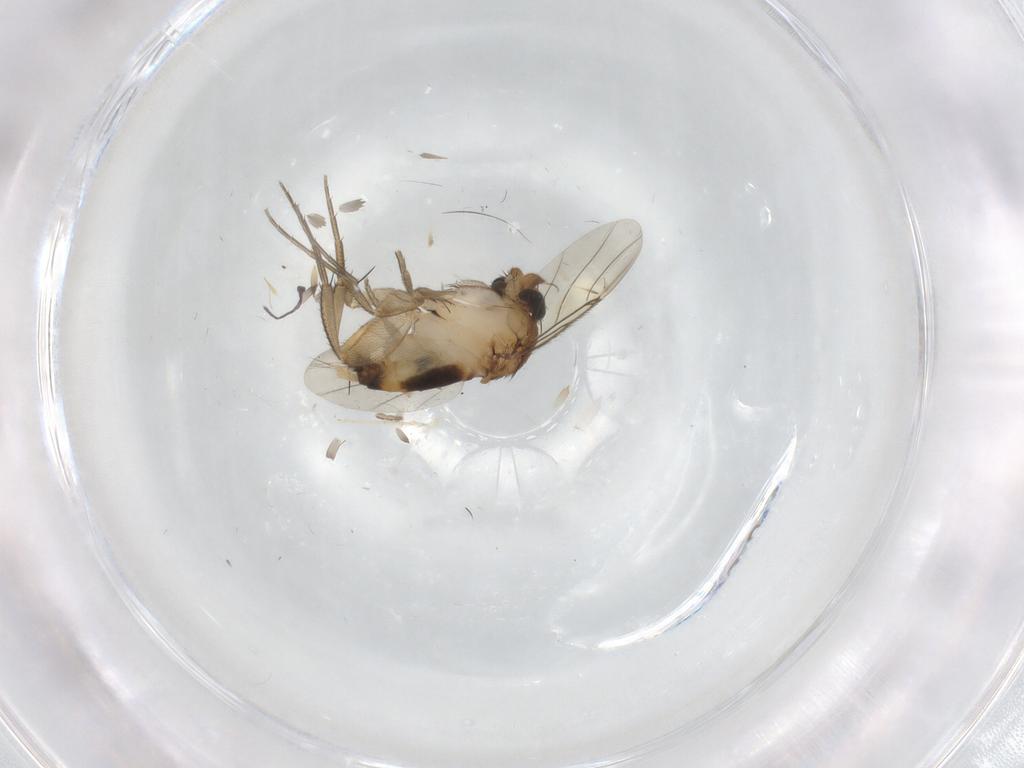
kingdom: Animalia
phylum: Arthropoda
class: Insecta
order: Diptera
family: Phoridae
